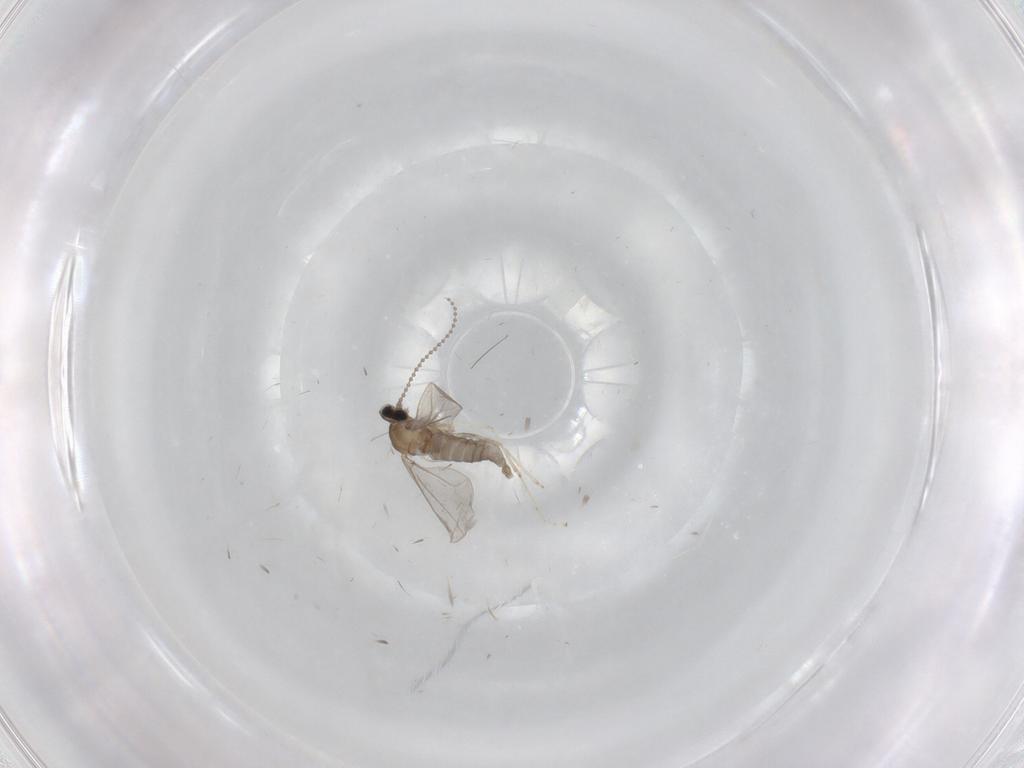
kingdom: Animalia
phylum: Arthropoda
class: Insecta
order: Diptera
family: Cecidomyiidae
